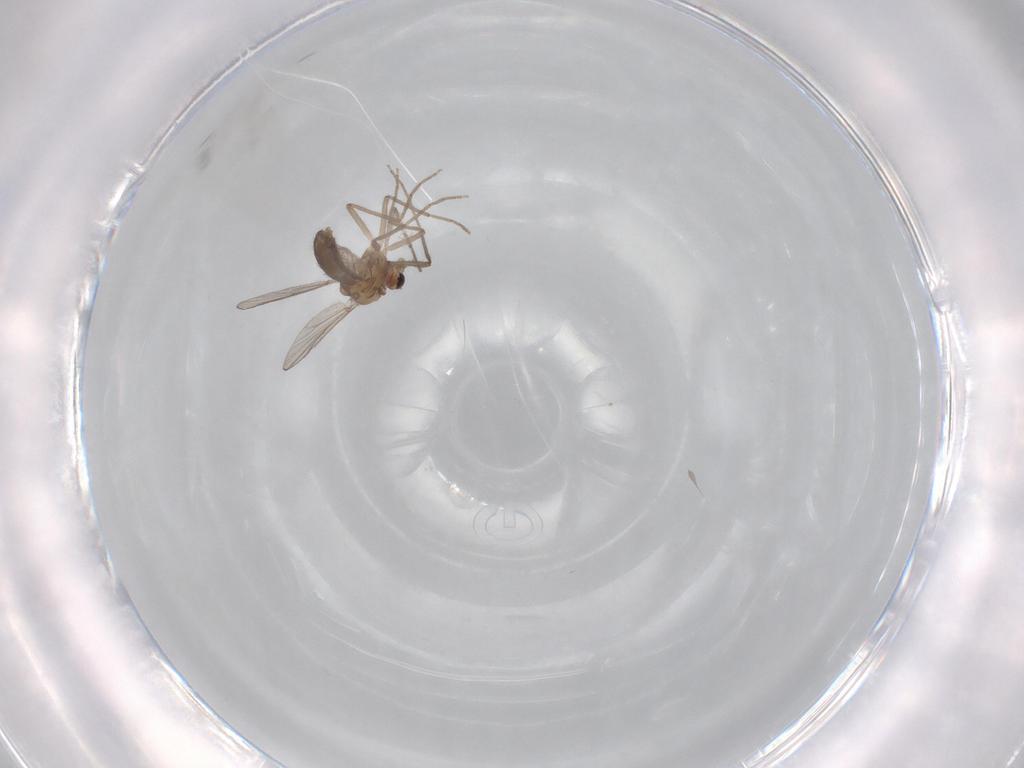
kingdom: Animalia
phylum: Arthropoda
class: Insecta
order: Diptera
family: Chironomidae
